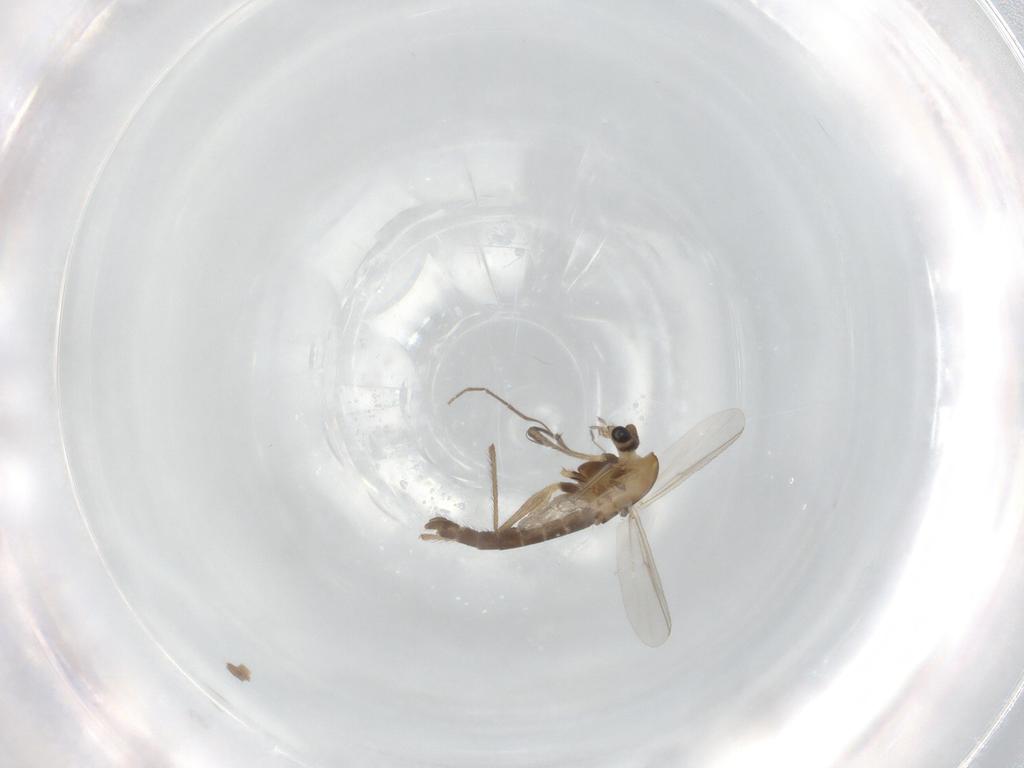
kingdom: Animalia
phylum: Arthropoda
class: Insecta
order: Diptera
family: Chironomidae
